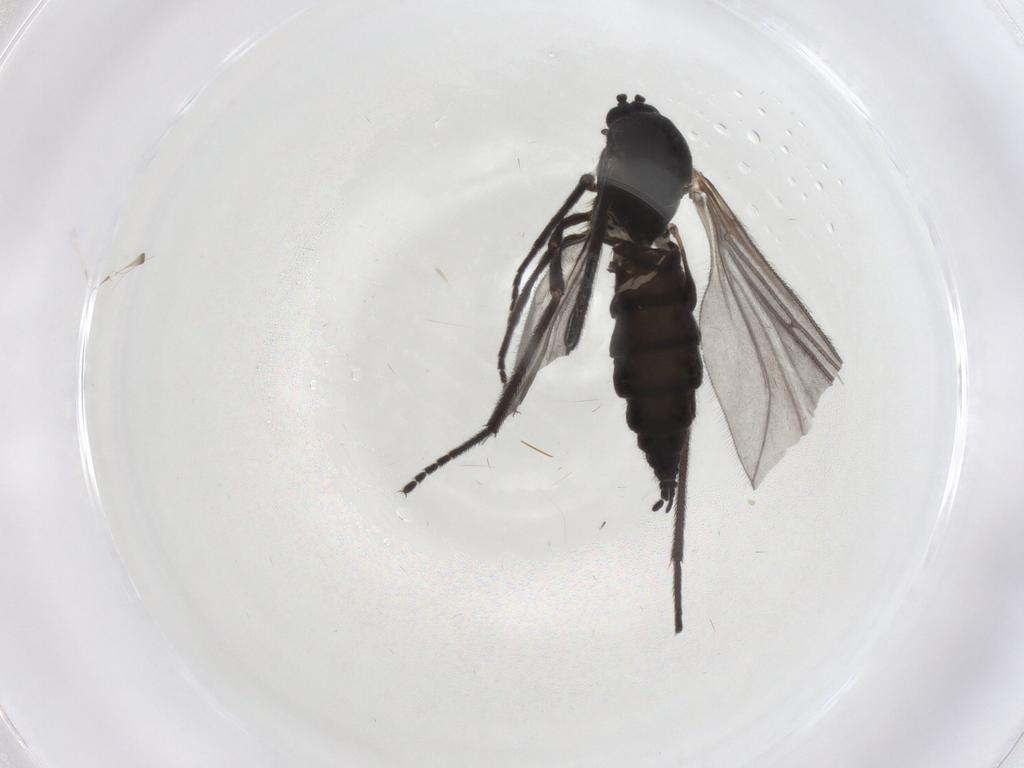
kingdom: Animalia
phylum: Arthropoda
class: Insecta
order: Diptera
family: Sciaridae
